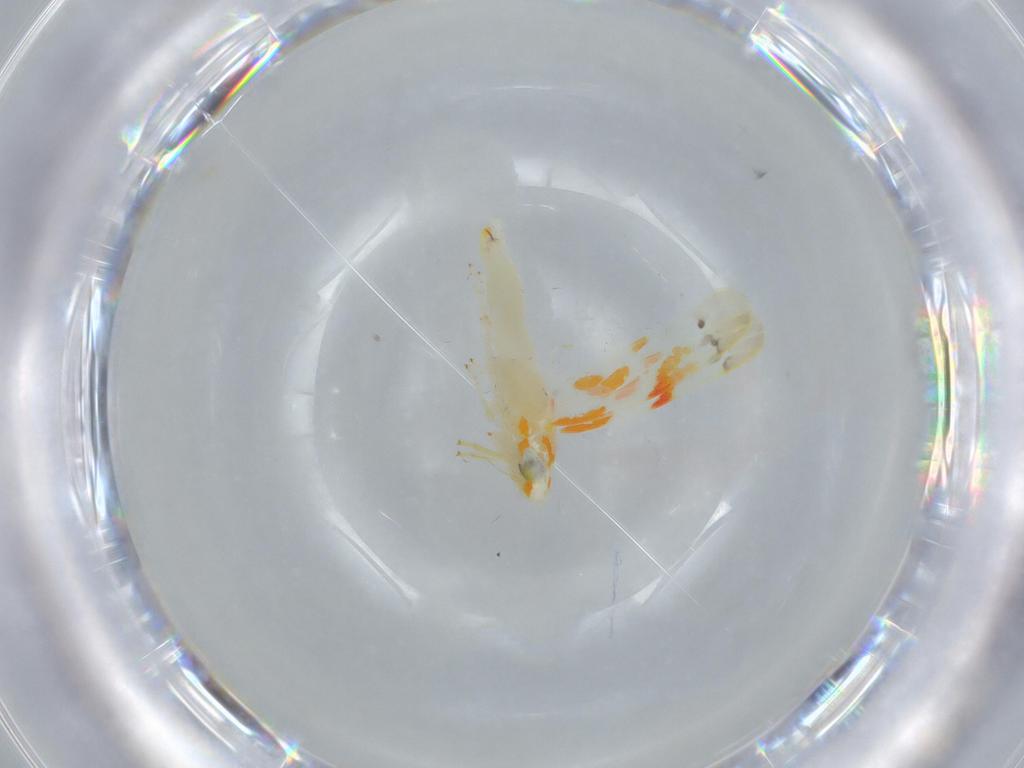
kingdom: Animalia
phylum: Arthropoda
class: Insecta
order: Hemiptera
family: Cicadellidae
